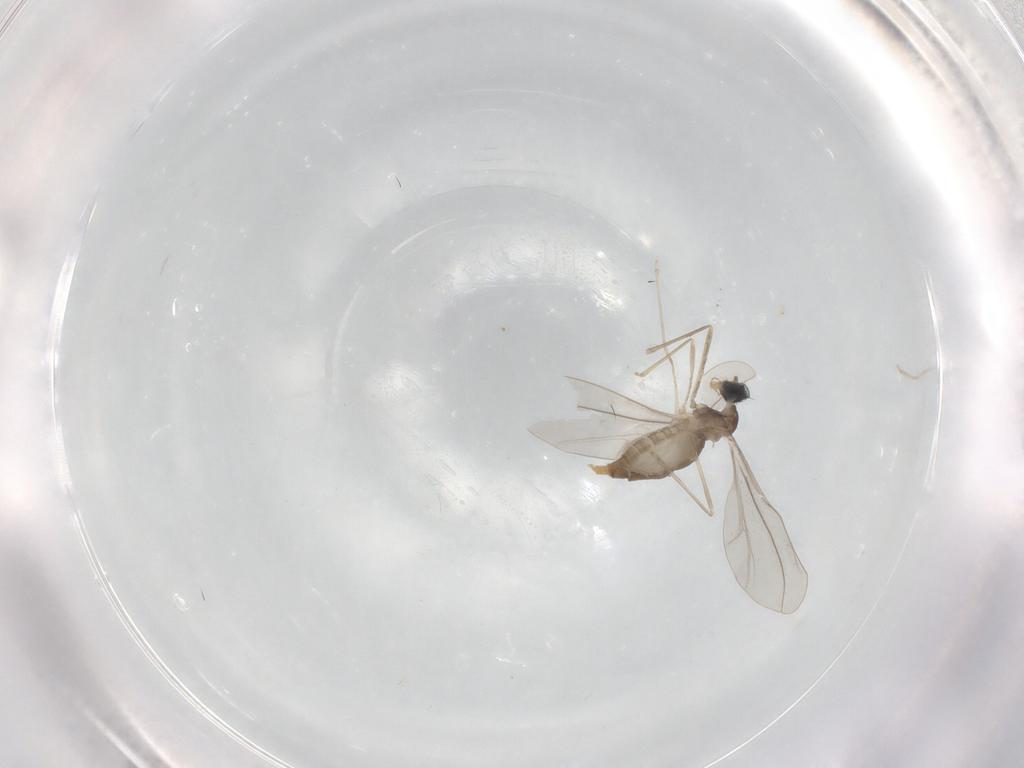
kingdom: Animalia
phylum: Arthropoda
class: Insecta
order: Diptera
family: Cecidomyiidae
